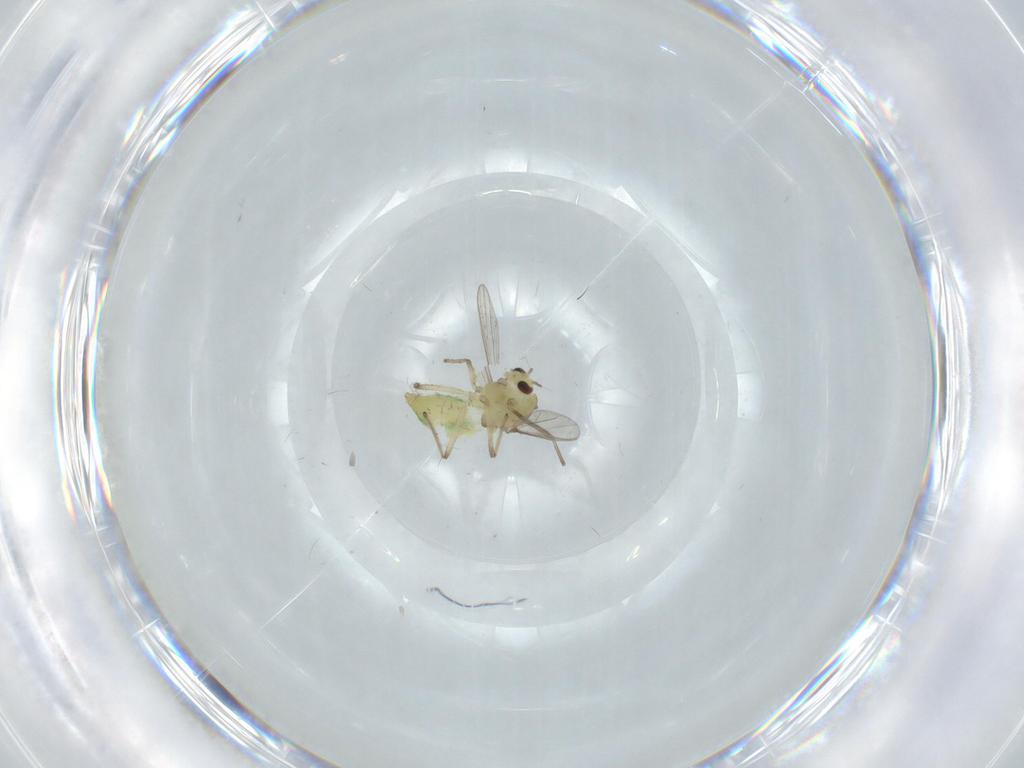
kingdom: Animalia
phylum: Arthropoda
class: Insecta
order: Diptera
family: Chironomidae
